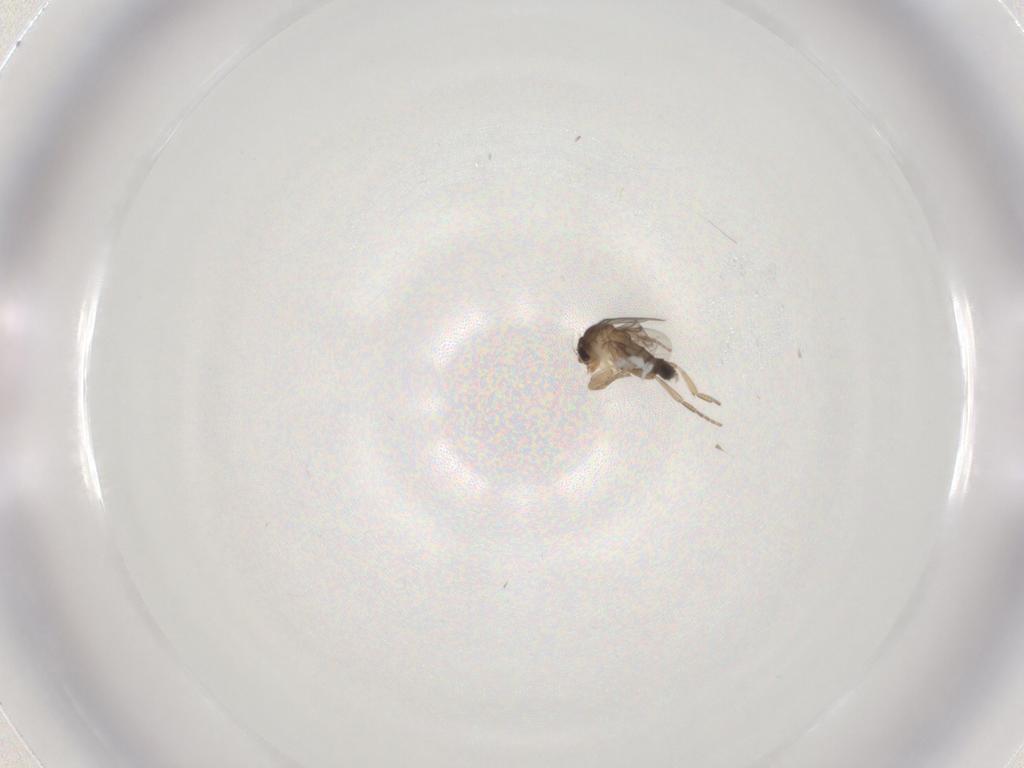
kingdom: Animalia
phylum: Arthropoda
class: Insecta
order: Diptera
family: Phoridae
